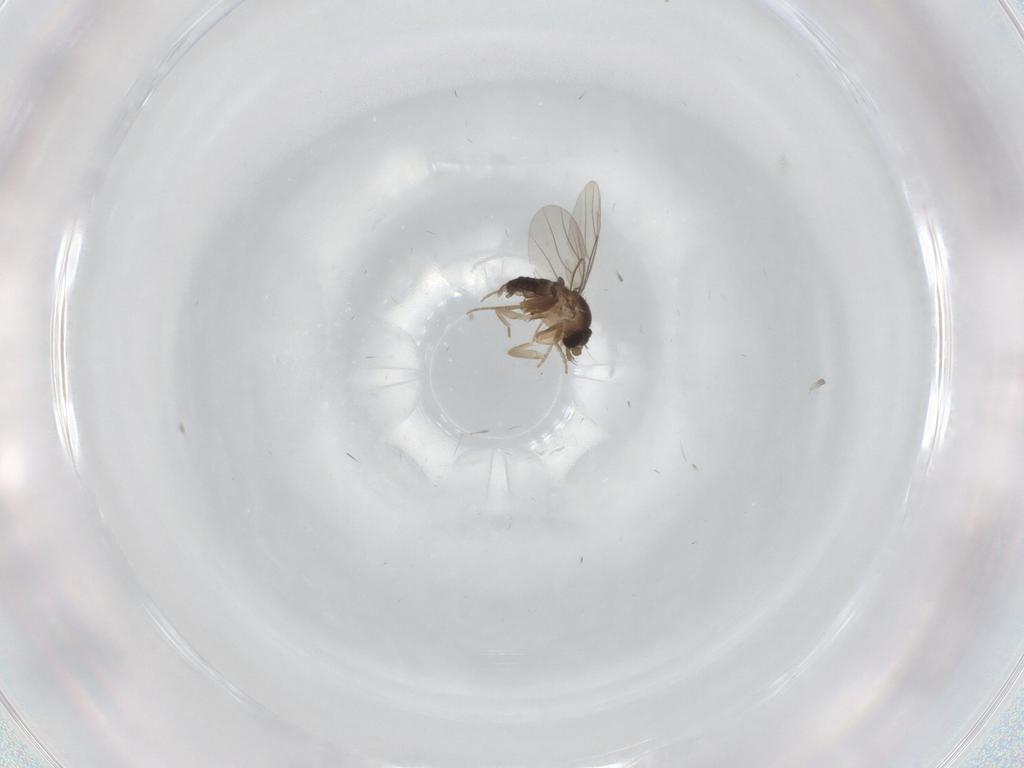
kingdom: Animalia
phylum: Arthropoda
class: Insecta
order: Diptera
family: Phoridae
